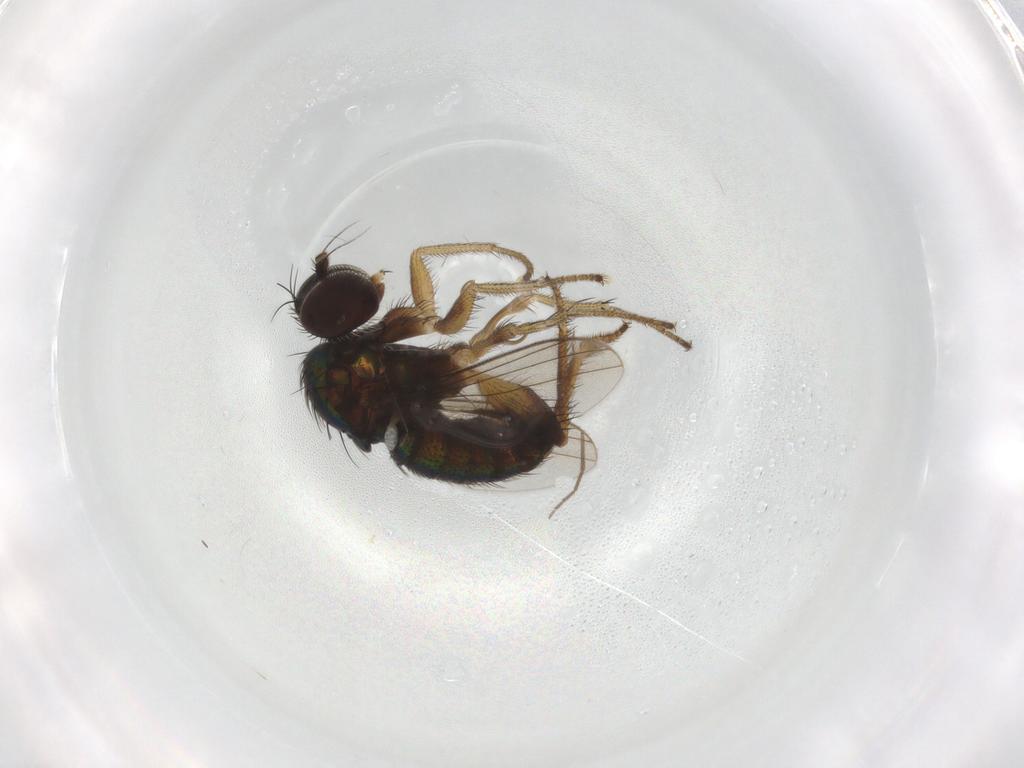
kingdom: Animalia
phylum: Arthropoda
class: Insecta
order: Diptera
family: Dolichopodidae
